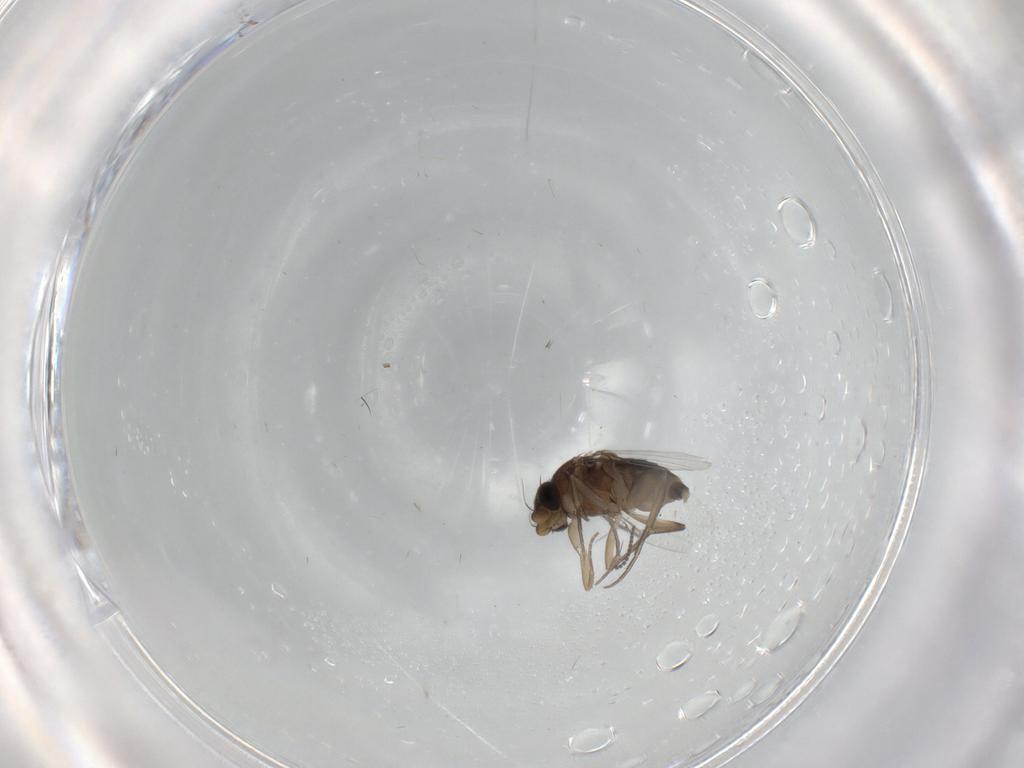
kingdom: Animalia
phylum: Arthropoda
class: Insecta
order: Diptera
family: Phoridae
